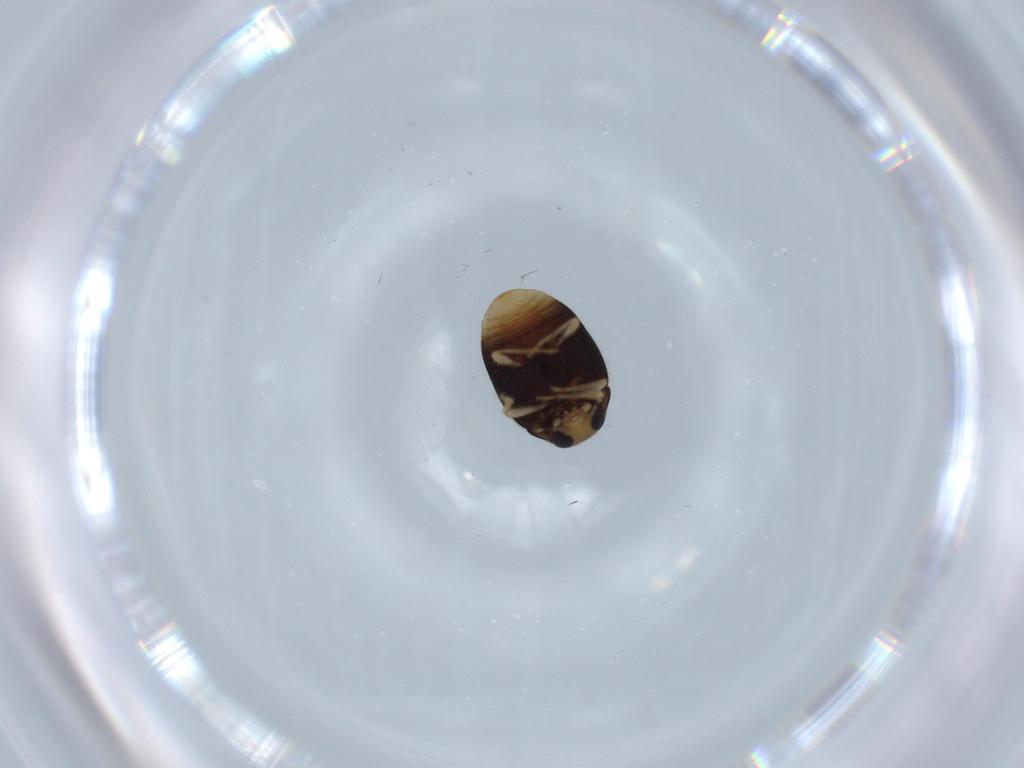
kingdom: Animalia
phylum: Arthropoda
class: Insecta
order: Coleoptera
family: Coccinellidae
